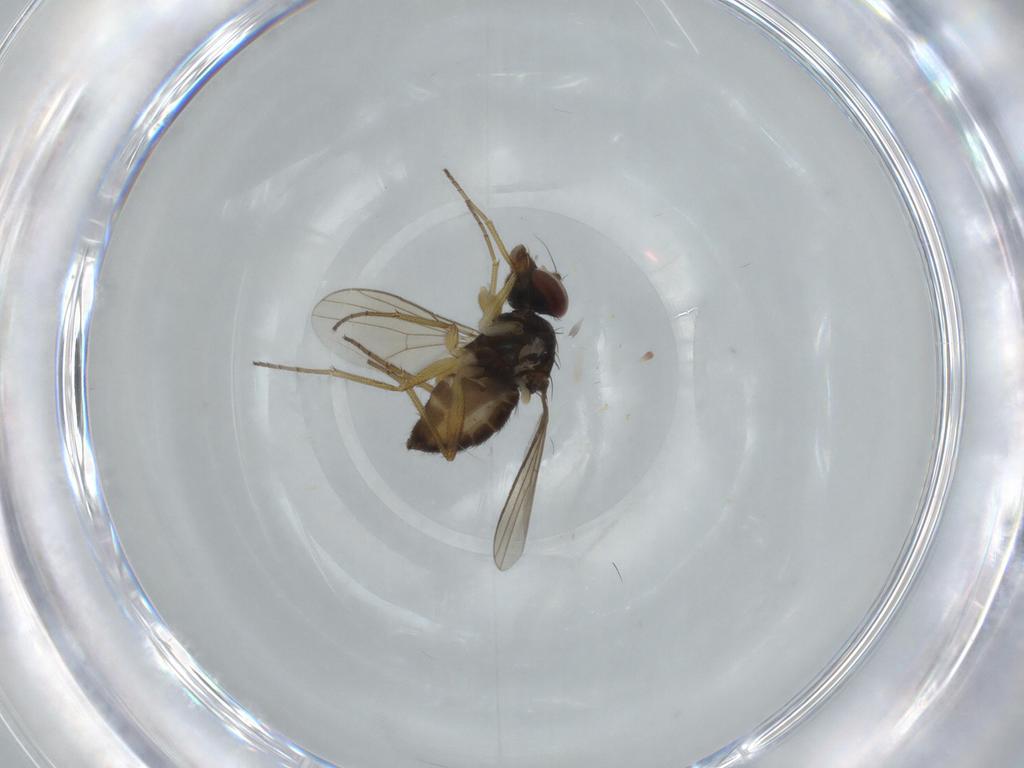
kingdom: Animalia
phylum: Arthropoda
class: Insecta
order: Diptera
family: Dolichopodidae
